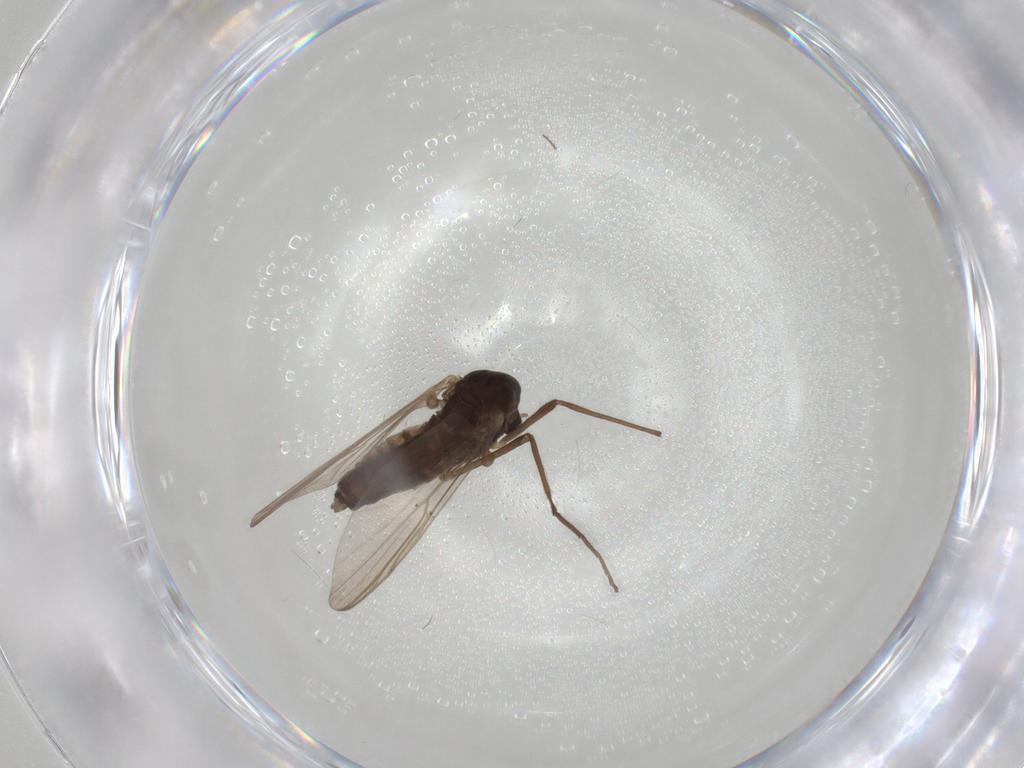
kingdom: Animalia
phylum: Arthropoda
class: Insecta
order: Diptera
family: Chironomidae
